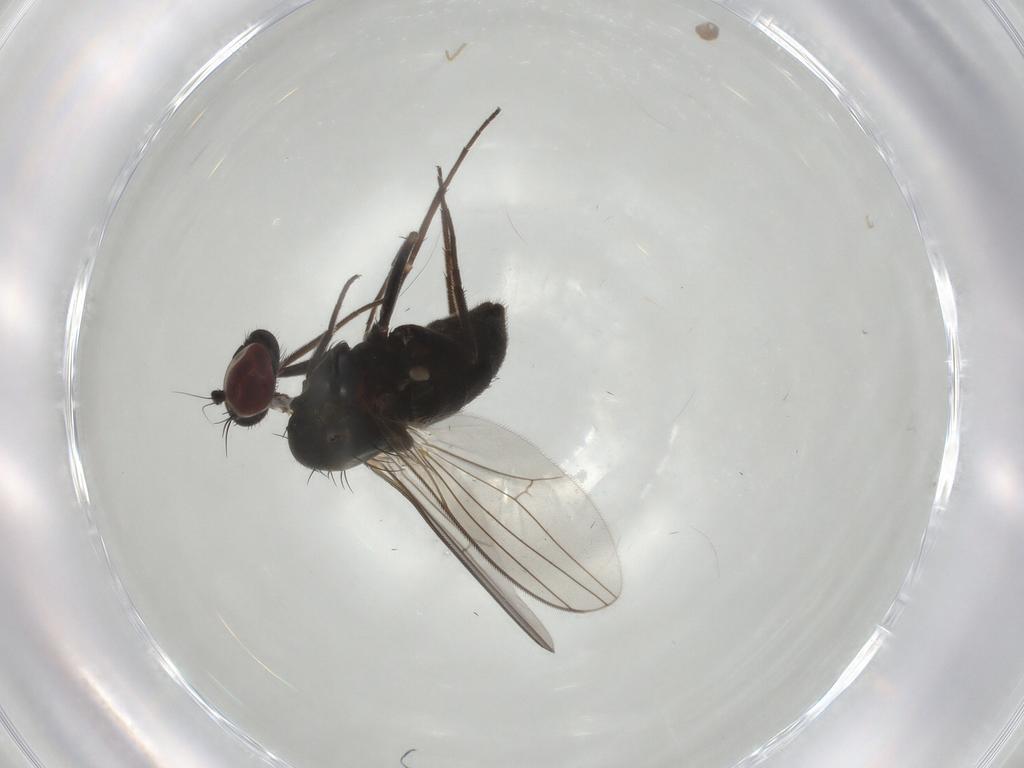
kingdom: Animalia
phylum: Arthropoda
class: Insecta
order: Diptera
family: Dolichopodidae
